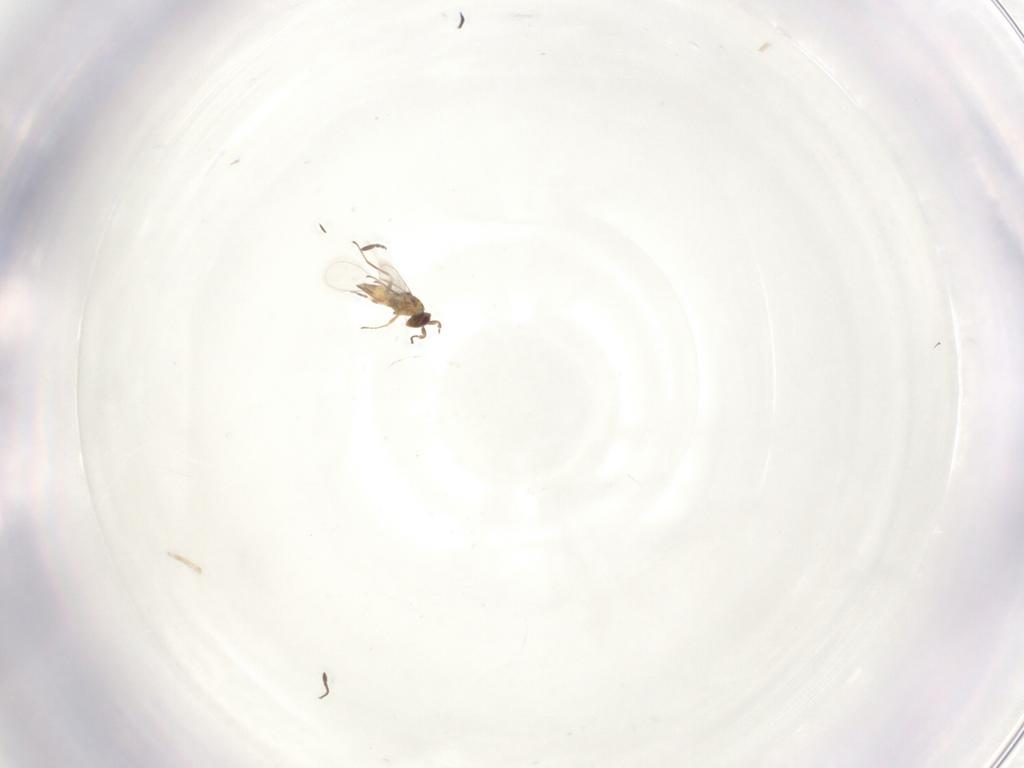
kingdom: Animalia
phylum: Arthropoda
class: Insecta
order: Hymenoptera
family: Mymaridae
